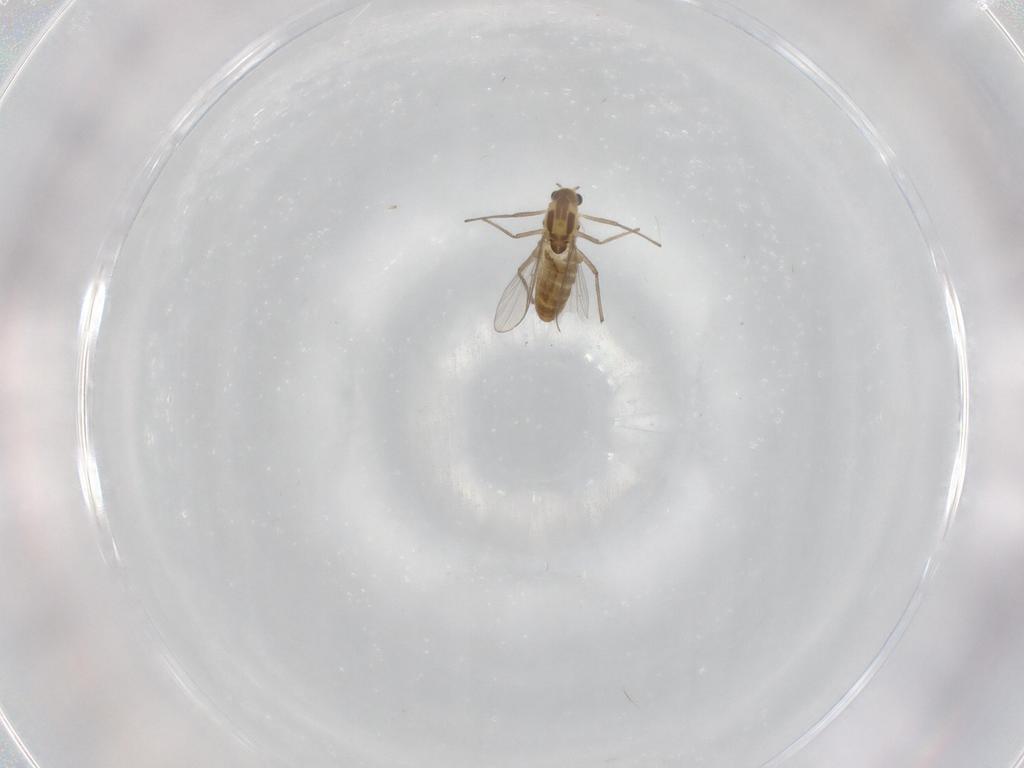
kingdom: Animalia
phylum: Arthropoda
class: Insecta
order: Diptera
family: Chironomidae
